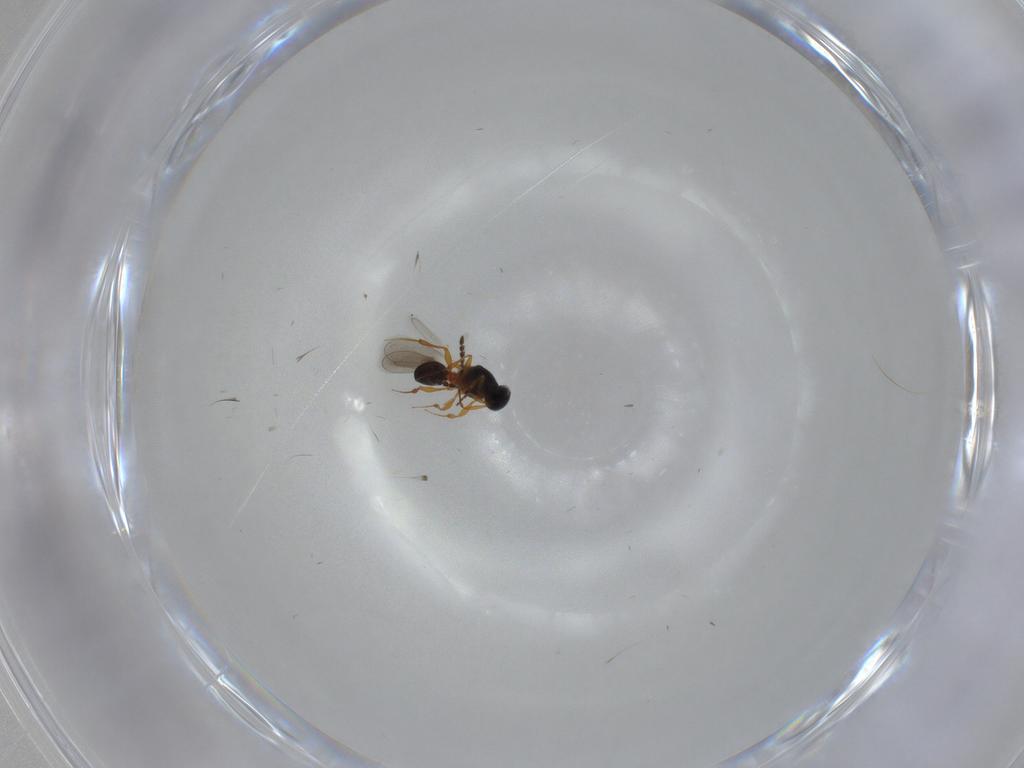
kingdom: Animalia
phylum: Arthropoda
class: Insecta
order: Hymenoptera
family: Platygastridae
